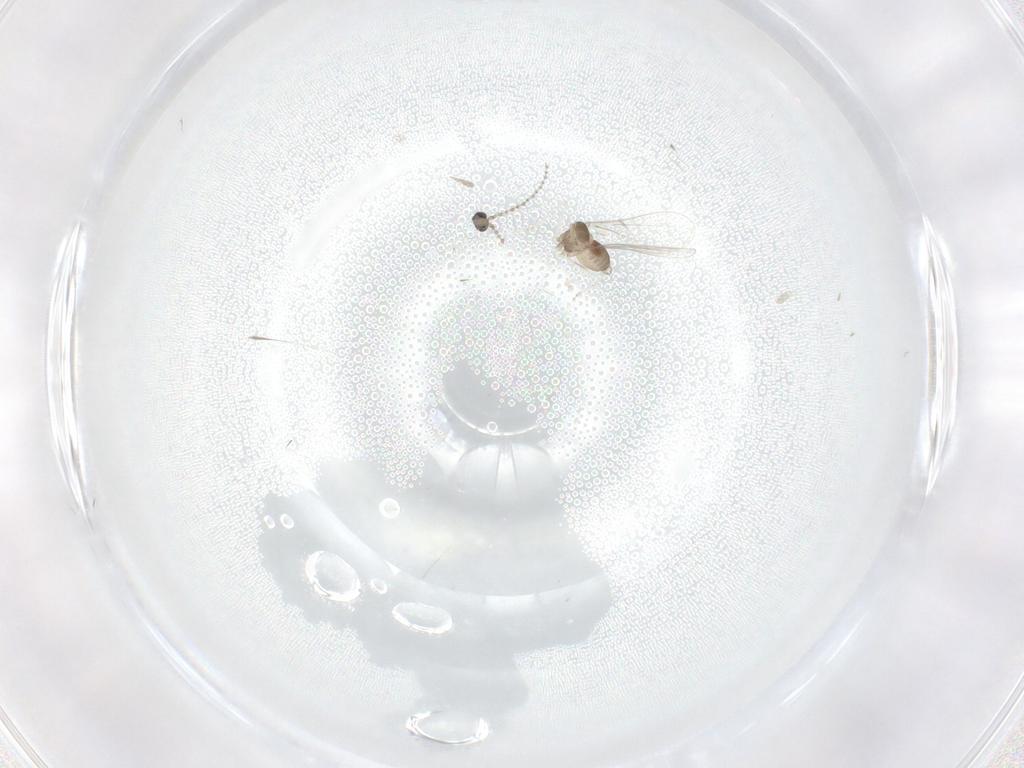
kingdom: Animalia
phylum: Arthropoda
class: Insecta
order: Diptera
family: Cecidomyiidae
